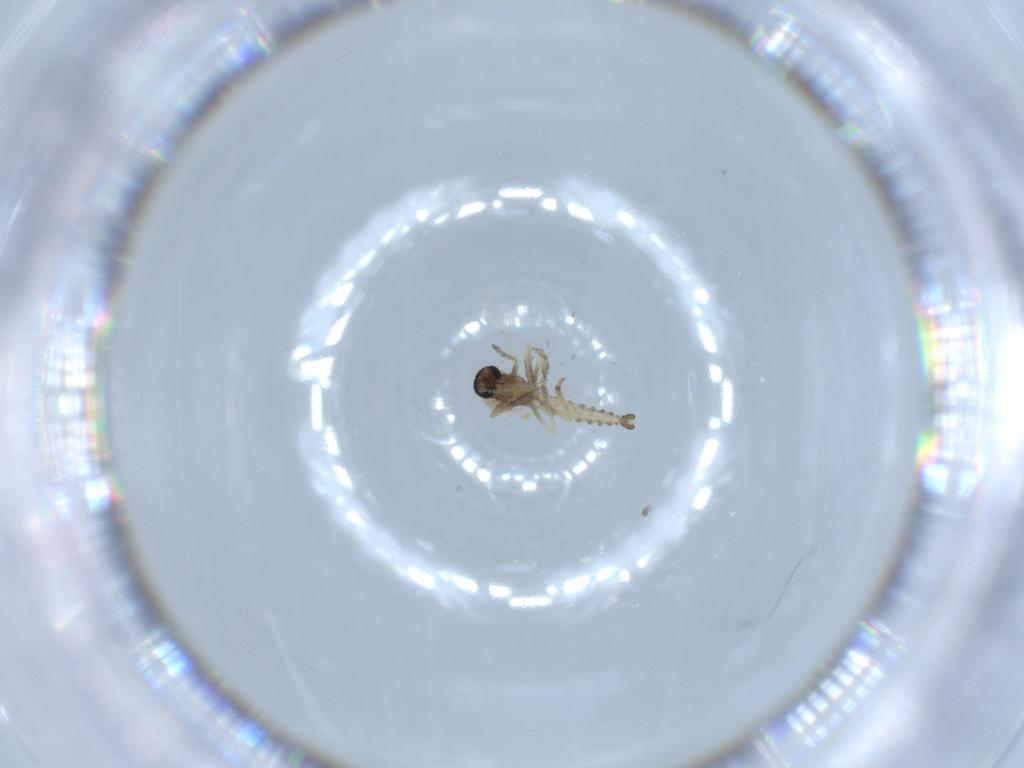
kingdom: Animalia
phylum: Arthropoda
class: Insecta
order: Diptera
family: Ceratopogonidae
